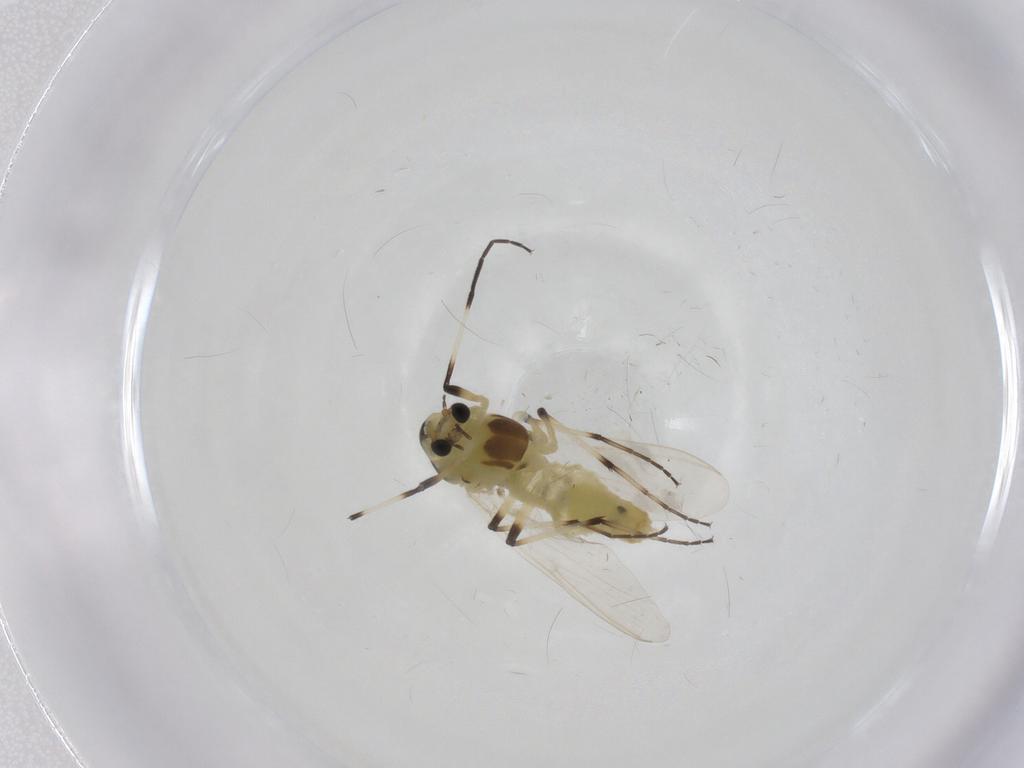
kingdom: Animalia
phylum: Arthropoda
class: Insecta
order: Diptera
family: Chironomidae
